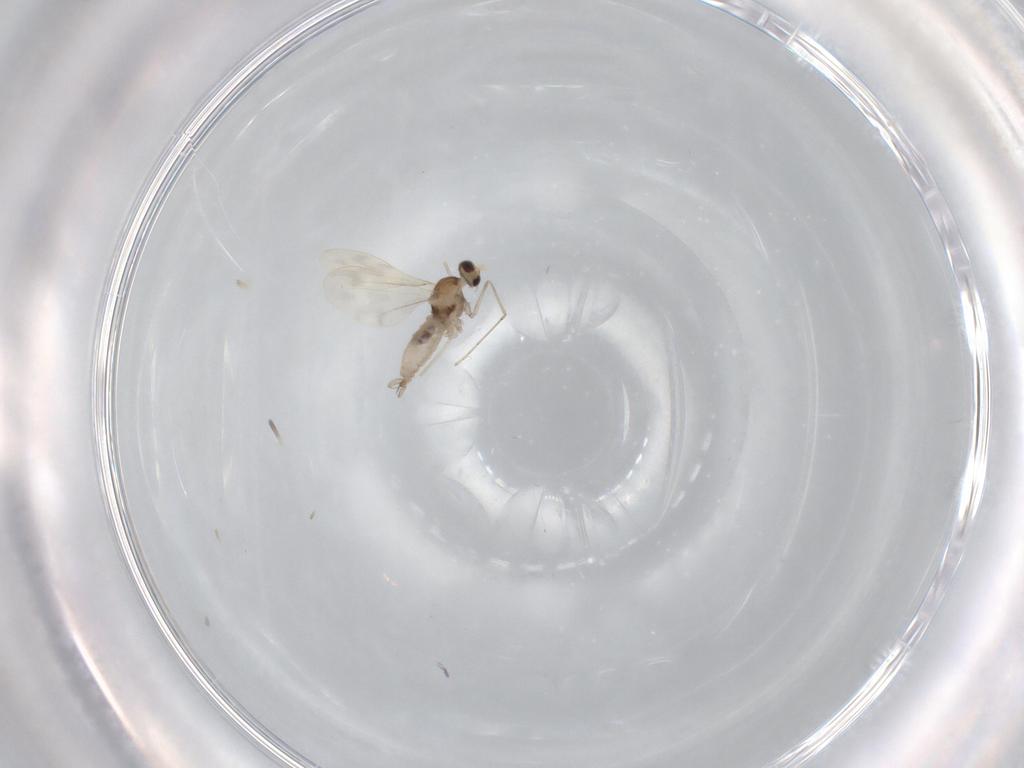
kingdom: Animalia
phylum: Arthropoda
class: Insecta
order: Diptera
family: Cecidomyiidae
